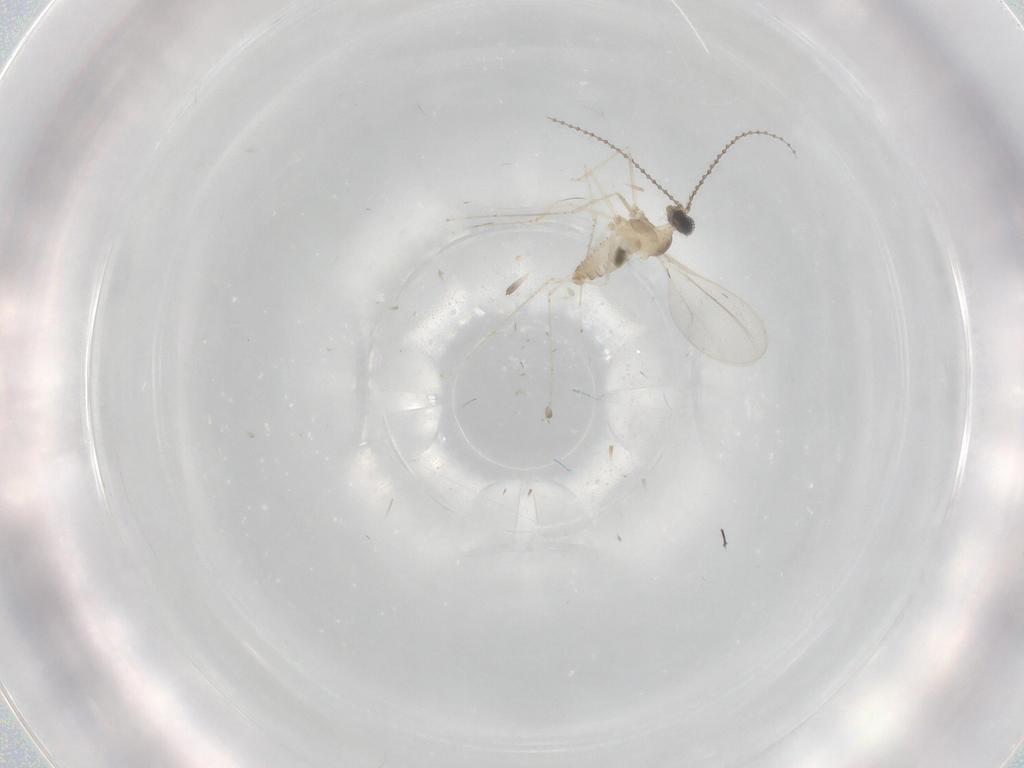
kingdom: Animalia
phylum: Arthropoda
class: Insecta
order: Diptera
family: Cecidomyiidae
